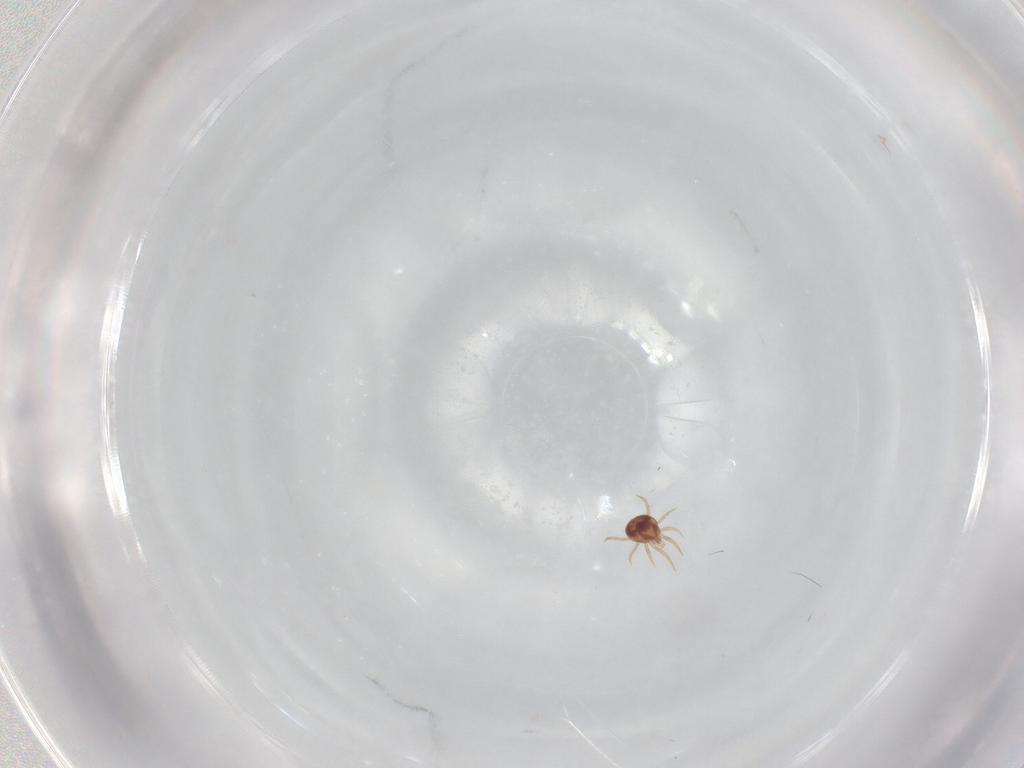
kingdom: Animalia
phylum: Arthropoda
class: Arachnida
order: Mesostigmata
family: Phytoseiidae
